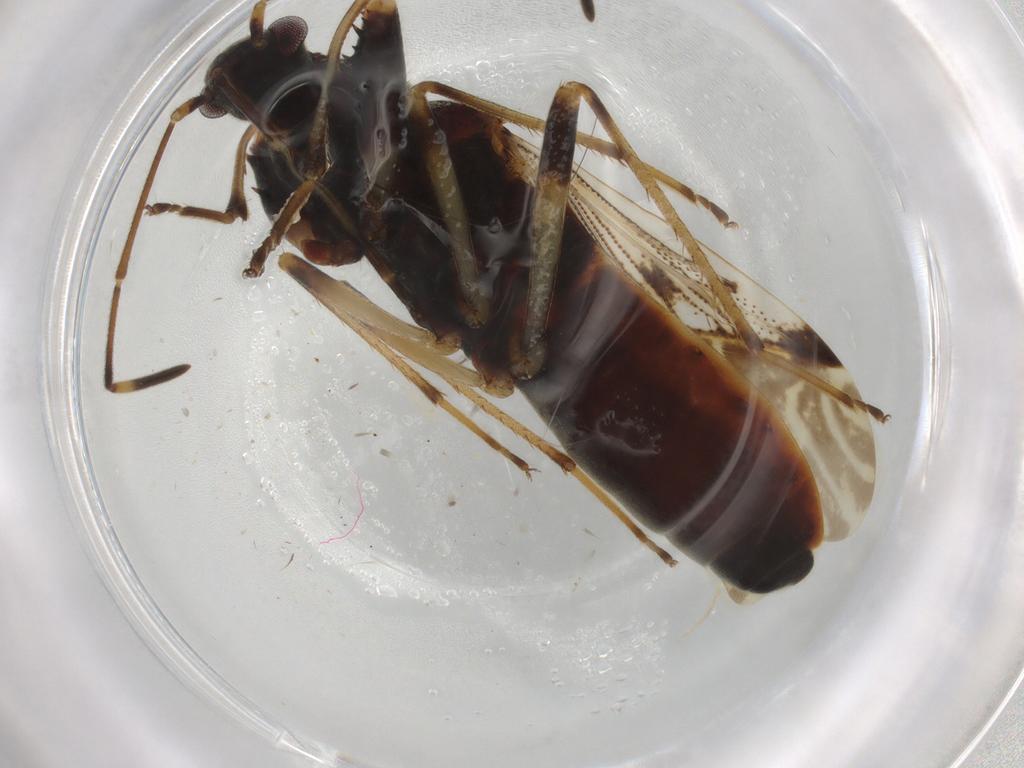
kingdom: Animalia
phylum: Arthropoda
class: Insecta
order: Hemiptera
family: Rhyparochromidae
